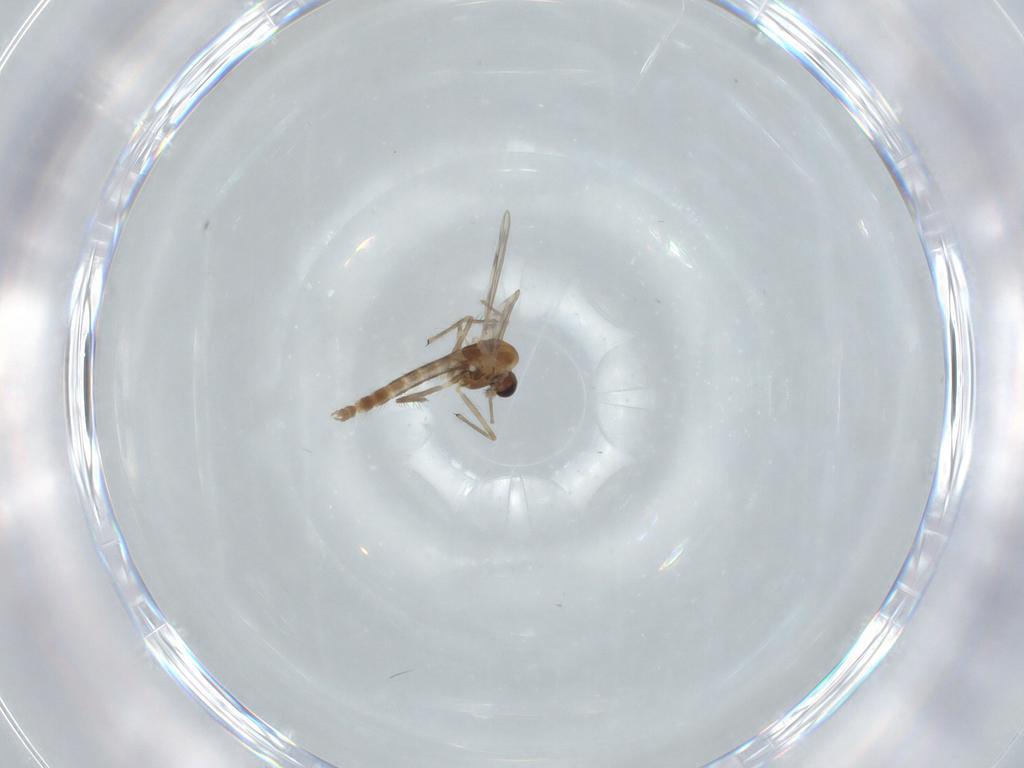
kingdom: Animalia
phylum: Arthropoda
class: Insecta
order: Diptera
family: Chironomidae
